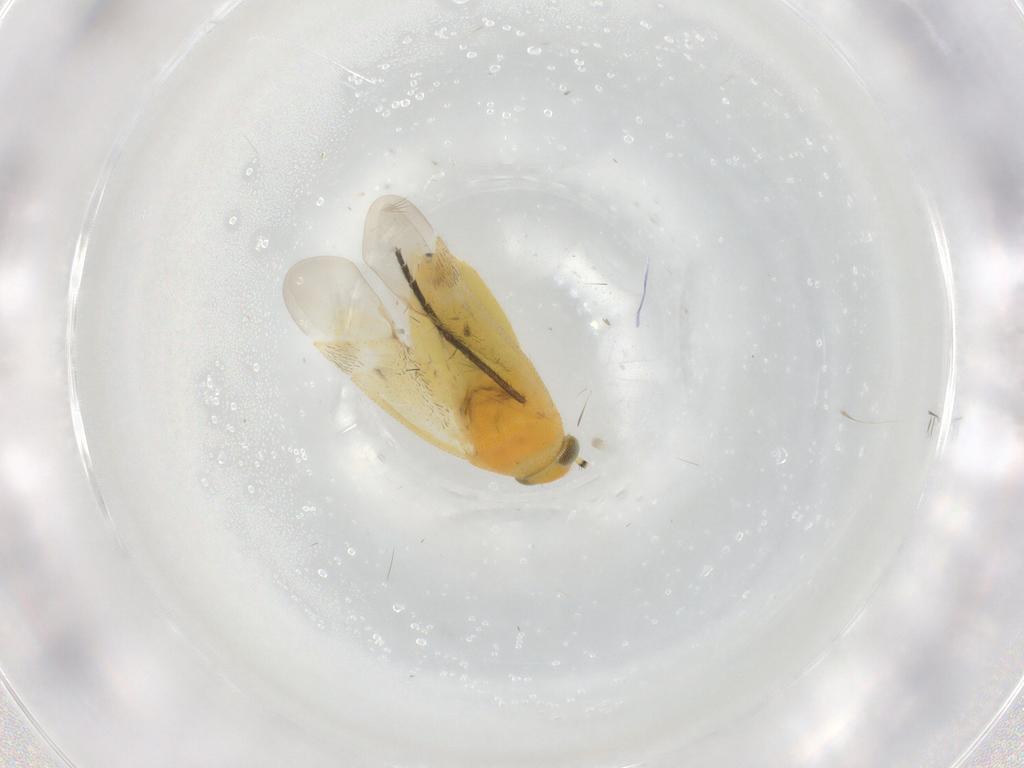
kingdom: Animalia
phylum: Arthropoda
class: Insecta
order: Hemiptera
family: Miridae
